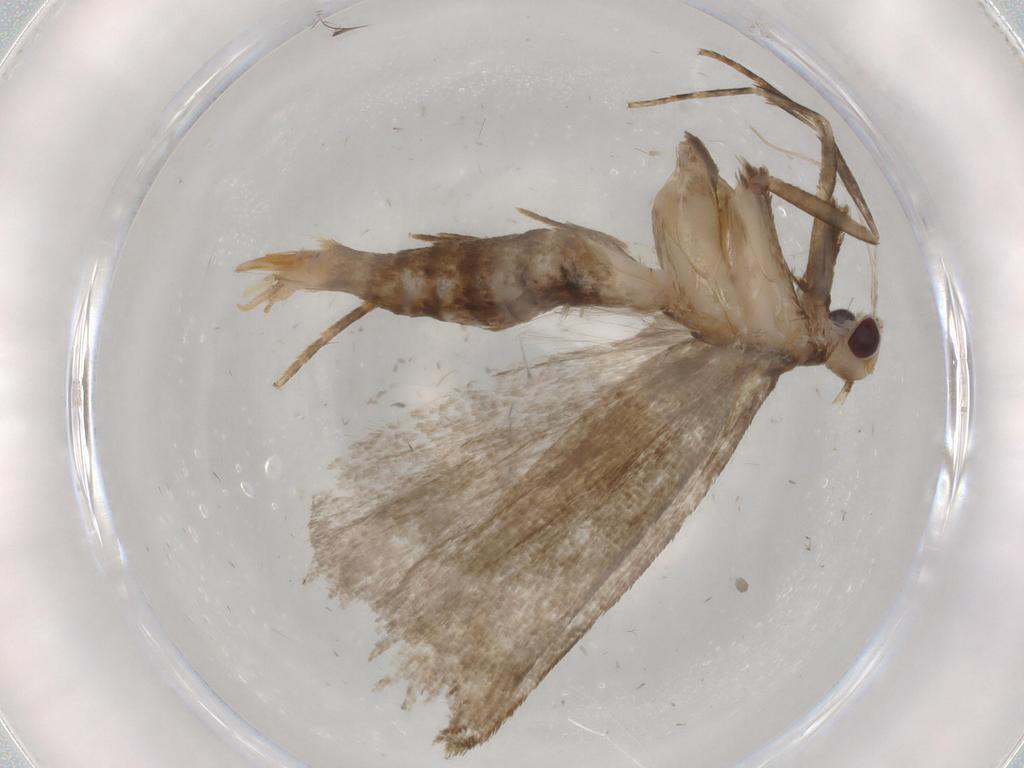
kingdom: Animalia
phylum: Arthropoda
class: Insecta
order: Lepidoptera
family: Gelechiidae
